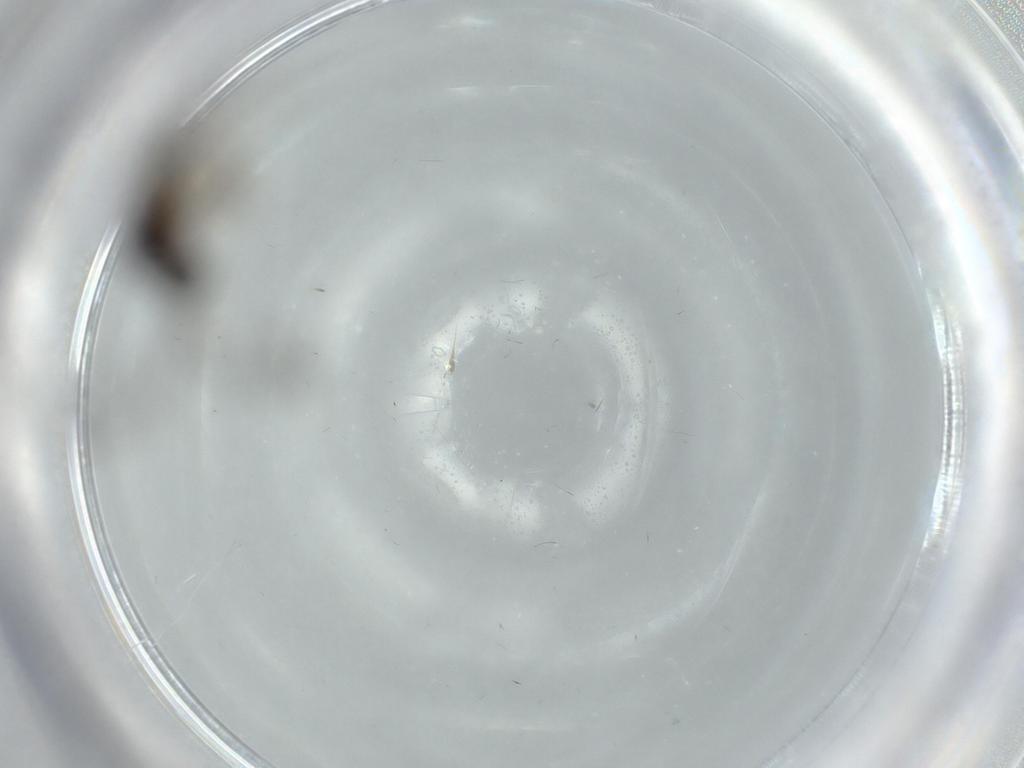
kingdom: Animalia
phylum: Arthropoda
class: Insecta
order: Hymenoptera
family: Diapriidae
